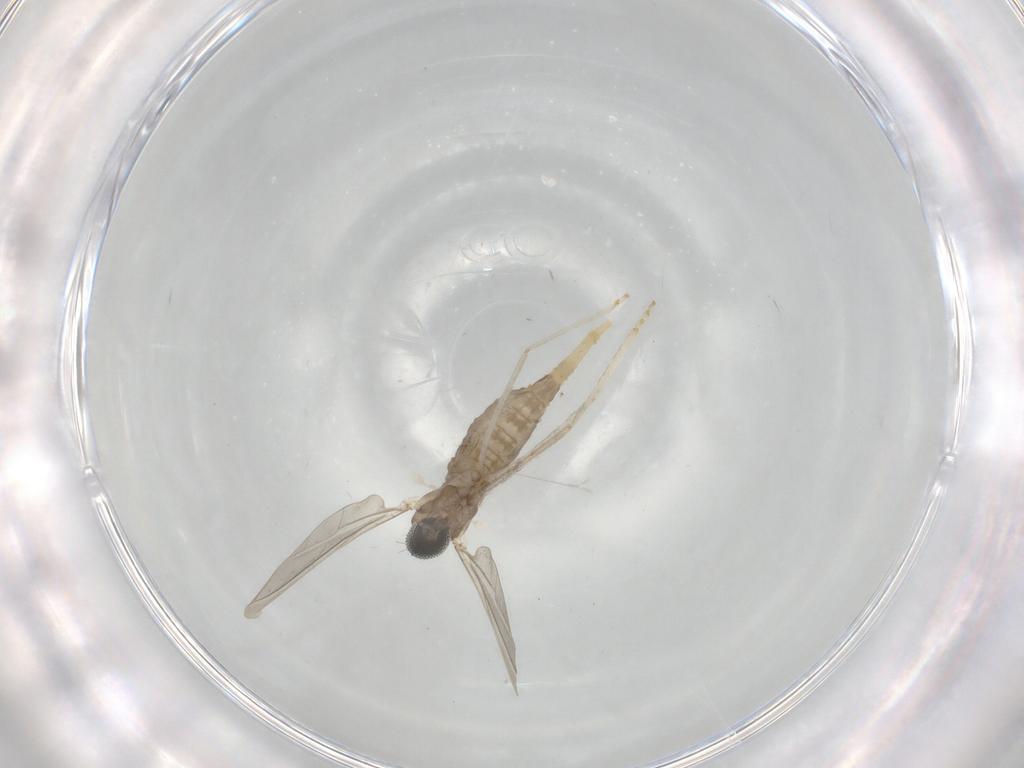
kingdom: Animalia
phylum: Arthropoda
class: Insecta
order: Diptera
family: Cecidomyiidae
